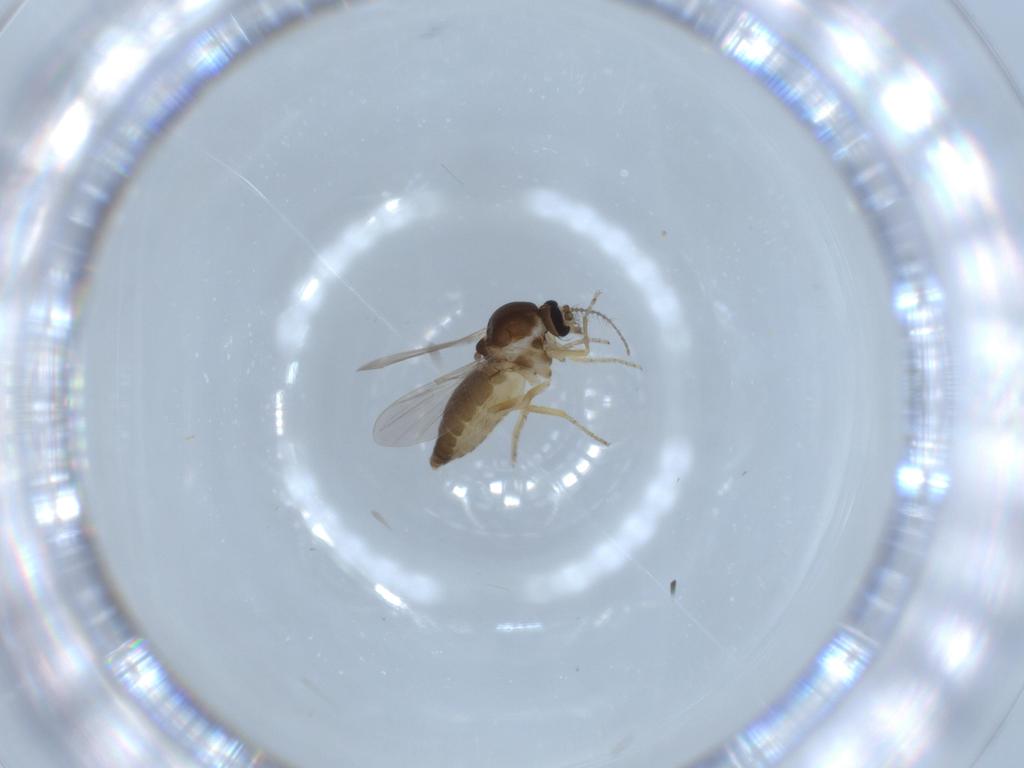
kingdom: Animalia
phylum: Arthropoda
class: Insecta
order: Diptera
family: Ceratopogonidae
